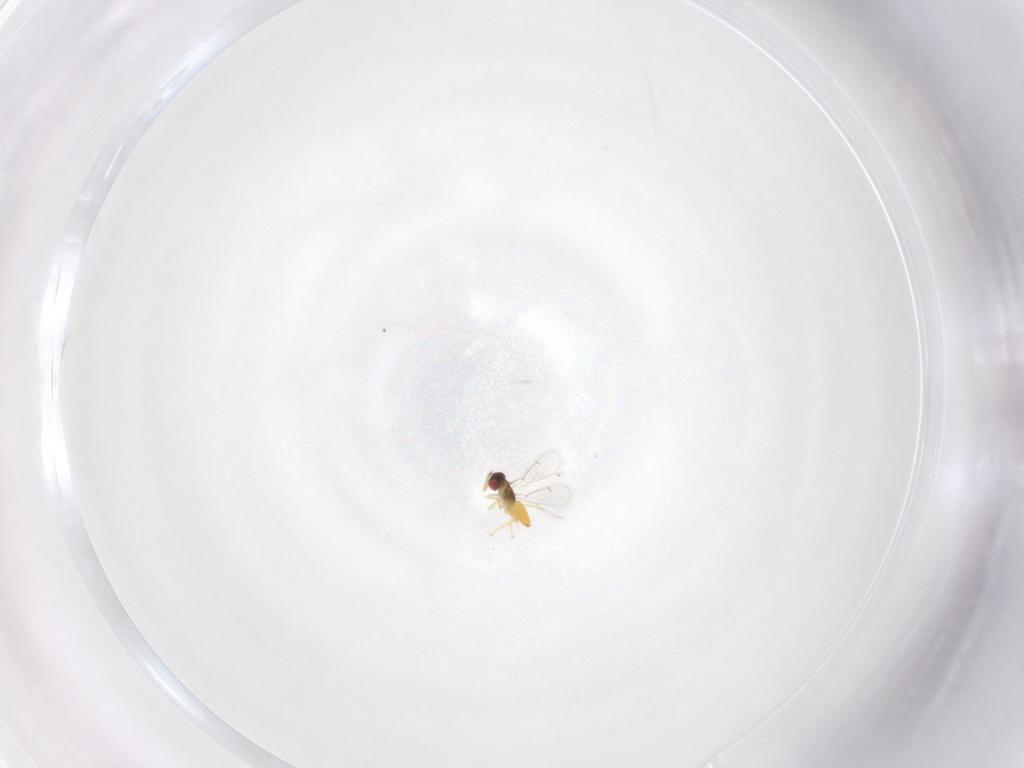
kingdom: Animalia
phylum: Arthropoda
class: Insecta
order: Hymenoptera
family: Eulophidae
